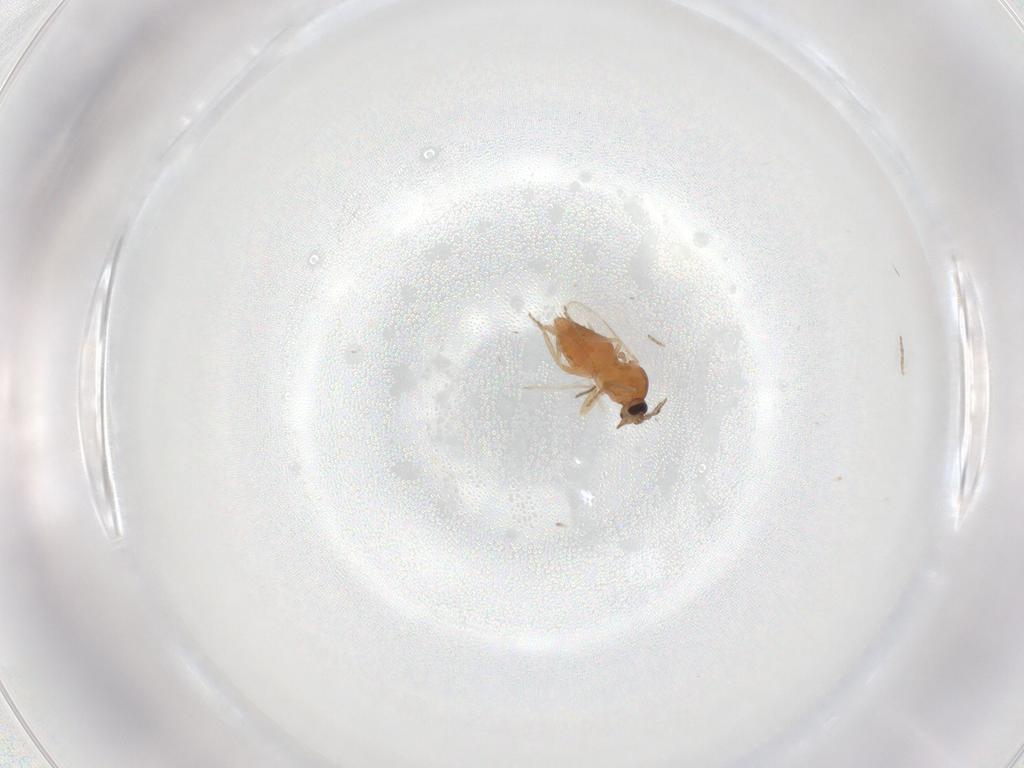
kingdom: Animalia
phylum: Arthropoda
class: Insecta
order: Diptera
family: Ceratopogonidae
